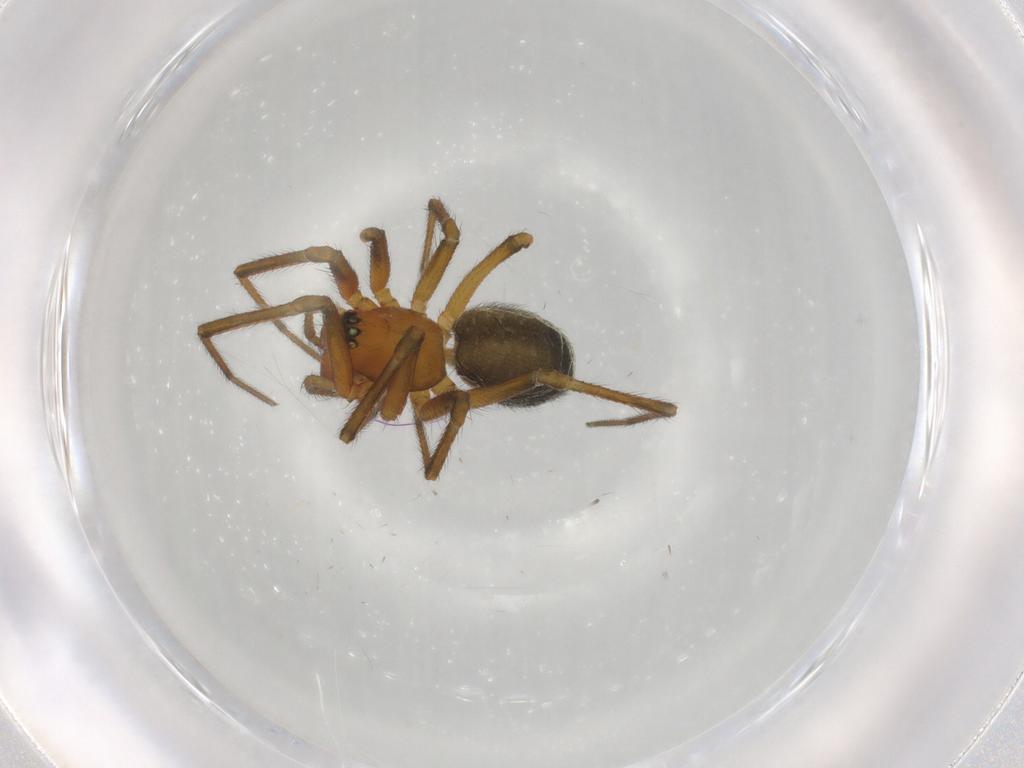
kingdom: Animalia
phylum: Arthropoda
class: Arachnida
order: Araneae
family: Linyphiidae
